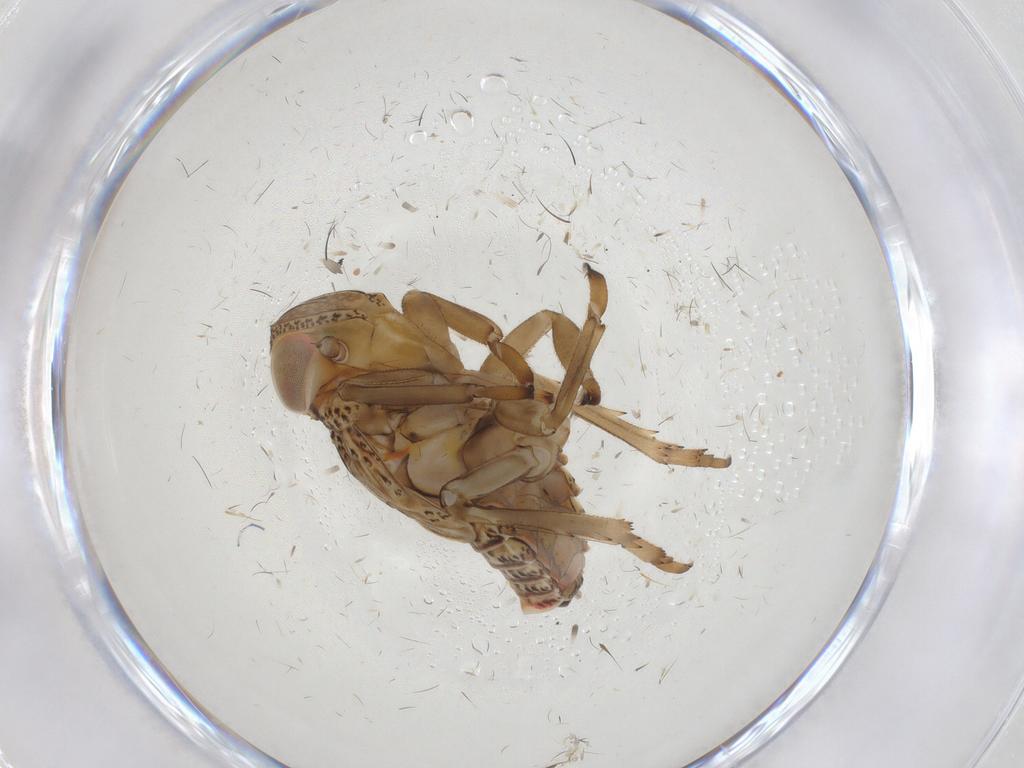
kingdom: Animalia
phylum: Arthropoda
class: Insecta
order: Hemiptera
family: Issidae
